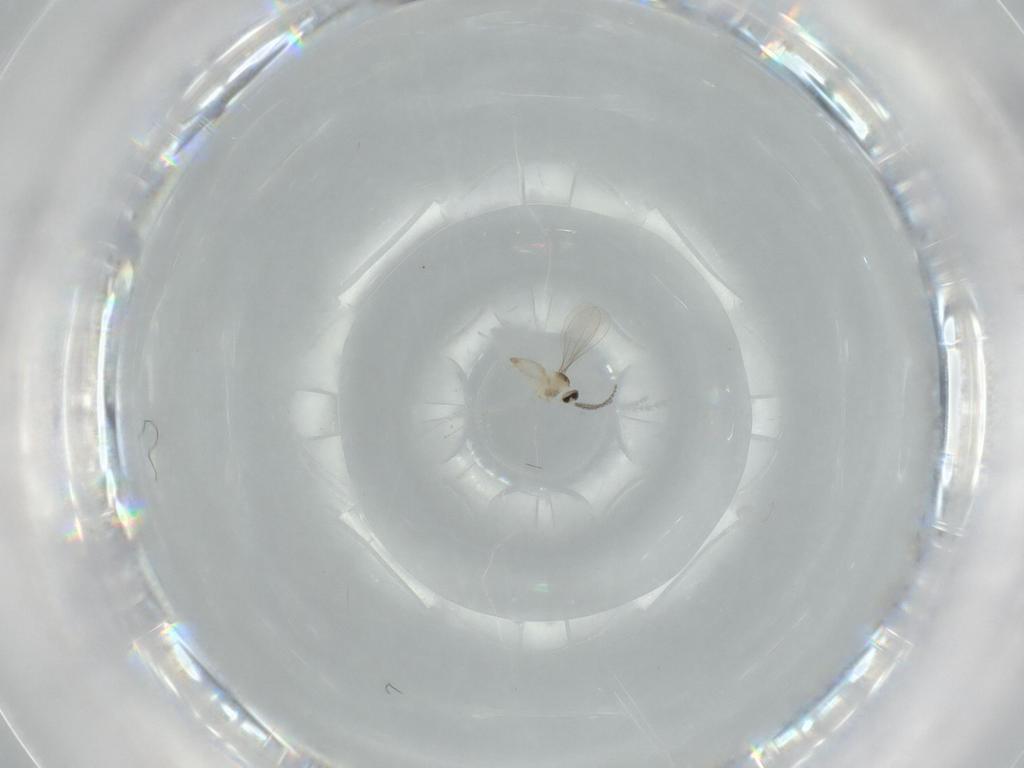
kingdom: Animalia
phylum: Arthropoda
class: Insecta
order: Diptera
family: Cecidomyiidae
